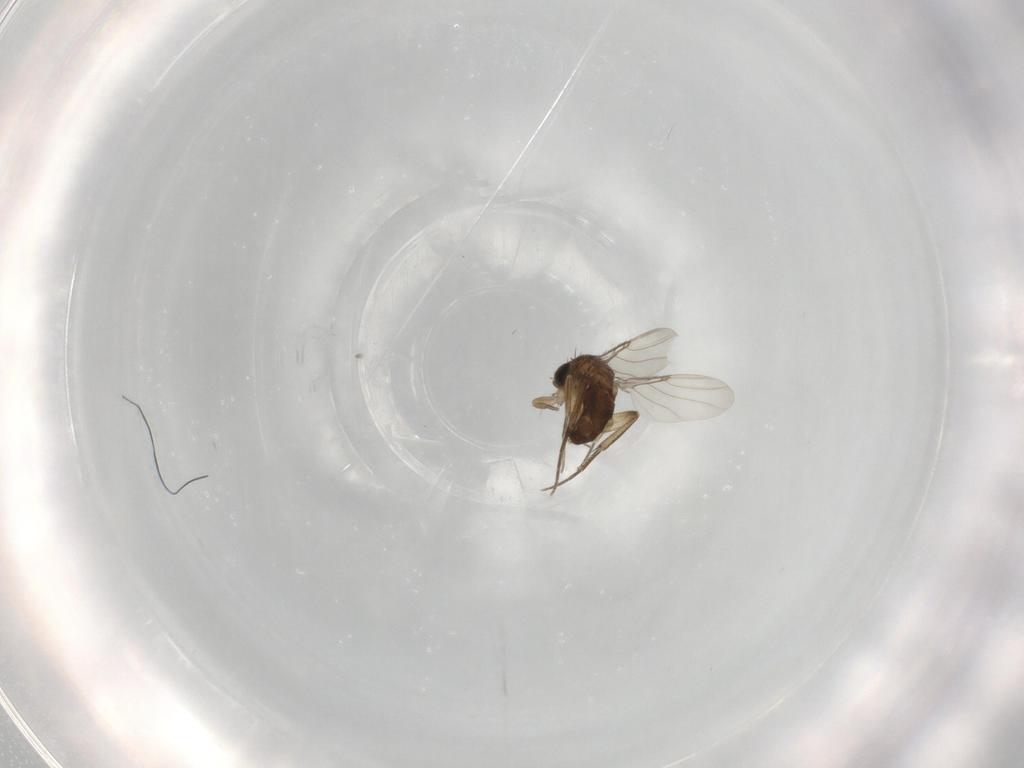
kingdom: Animalia
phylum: Arthropoda
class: Insecta
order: Diptera
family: Phoridae
